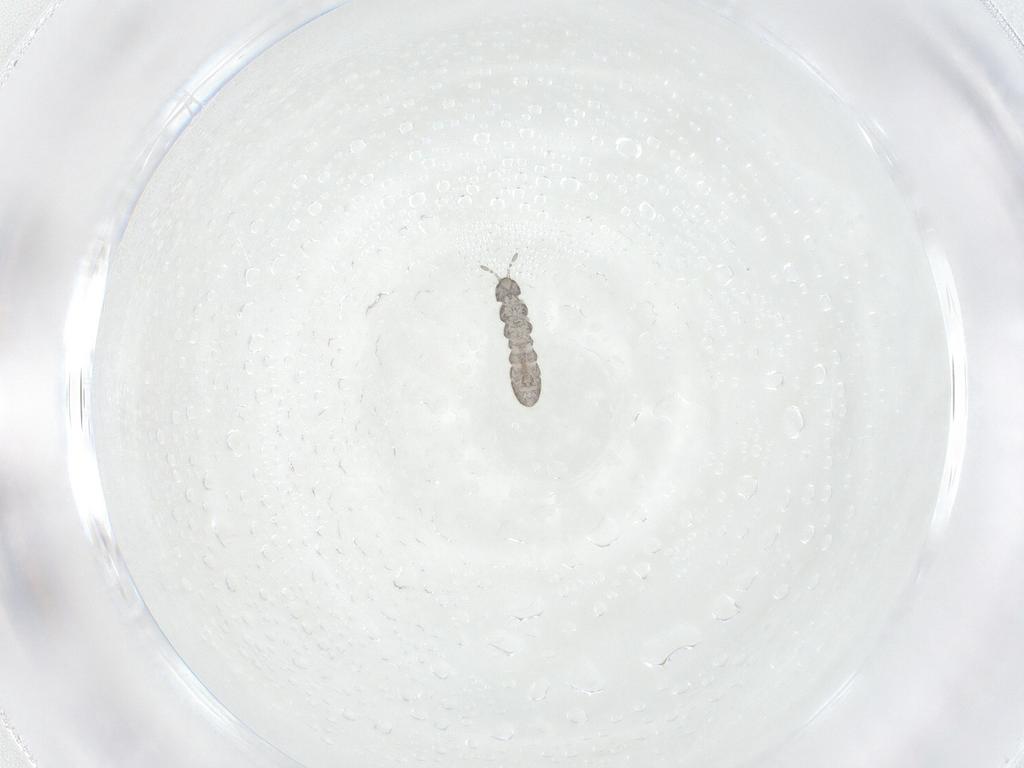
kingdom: Animalia
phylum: Arthropoda
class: Collembola
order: Entomobryomorpha
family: Isotomidae
